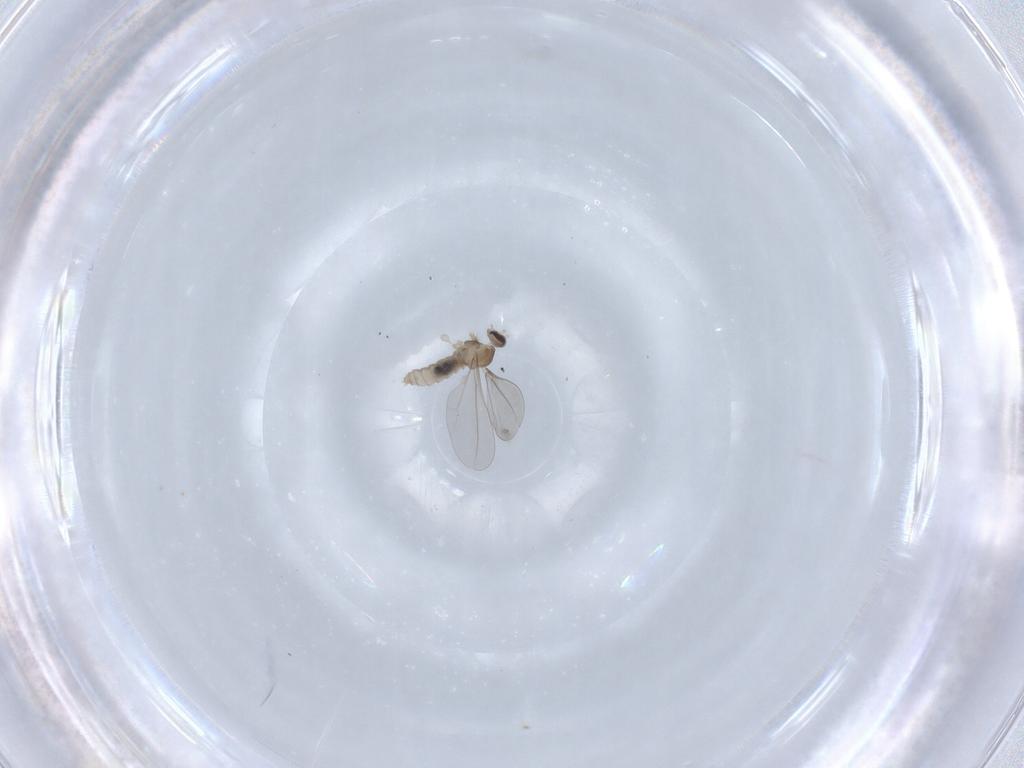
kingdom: Animalia
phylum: Arthropoda
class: Insecta
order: Diptera
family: Cecidomyiidae
